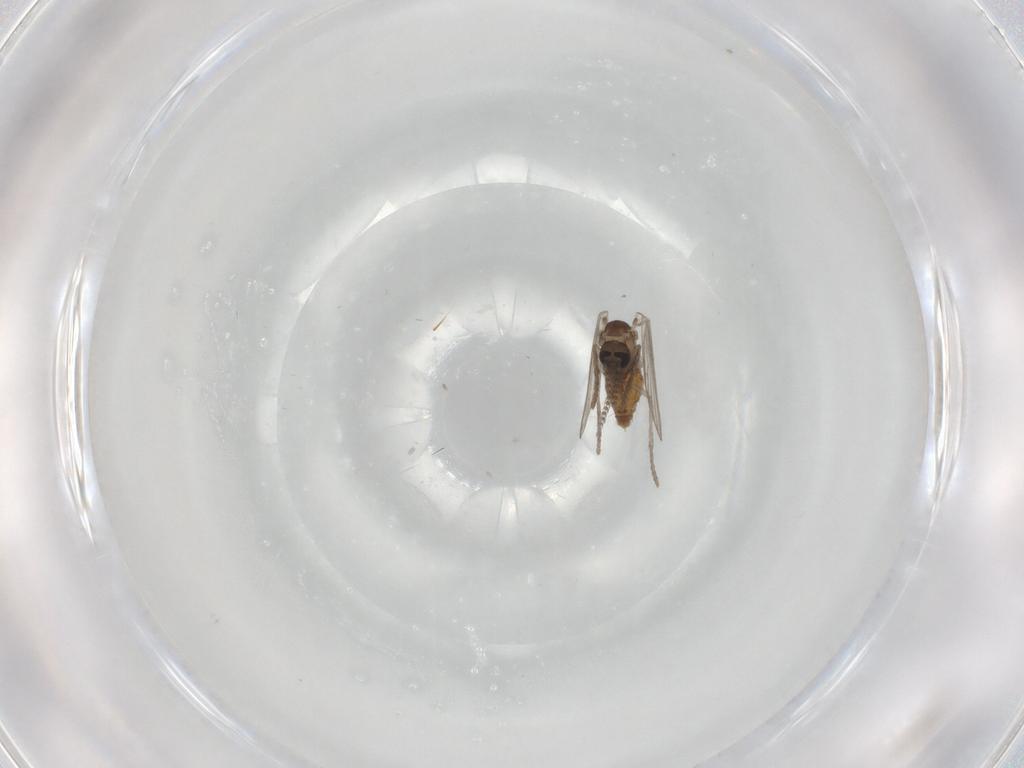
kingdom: Animalia
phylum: Arthropoda
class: Insecta
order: Diptera
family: Psychodidae
